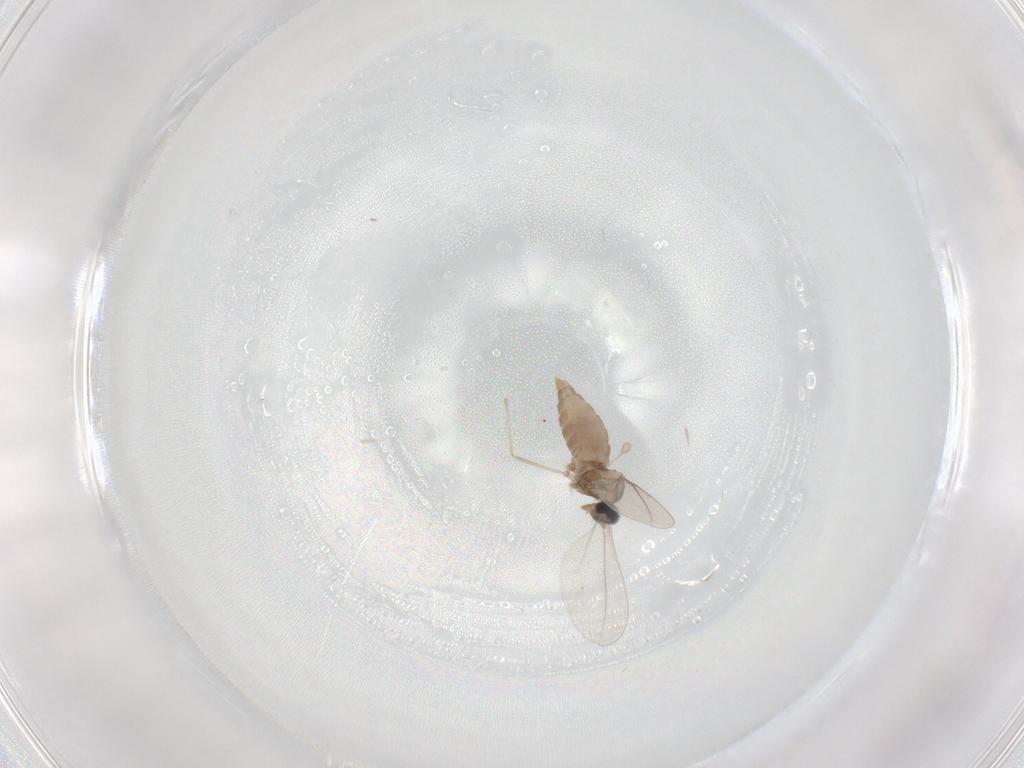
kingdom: Animalia
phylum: Arthropoda
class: Insecta
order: Diptera
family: Cecidomyiidae
